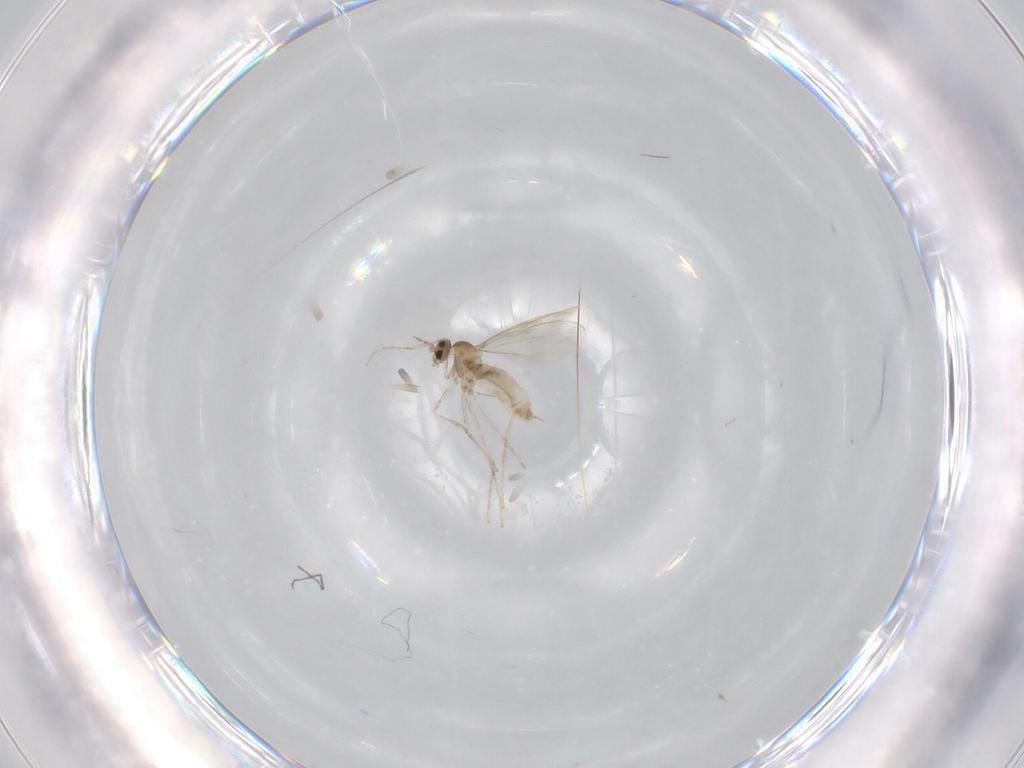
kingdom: Animalia
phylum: Arthropoda
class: Insecta
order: Diptera
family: Cecidomyiidae
